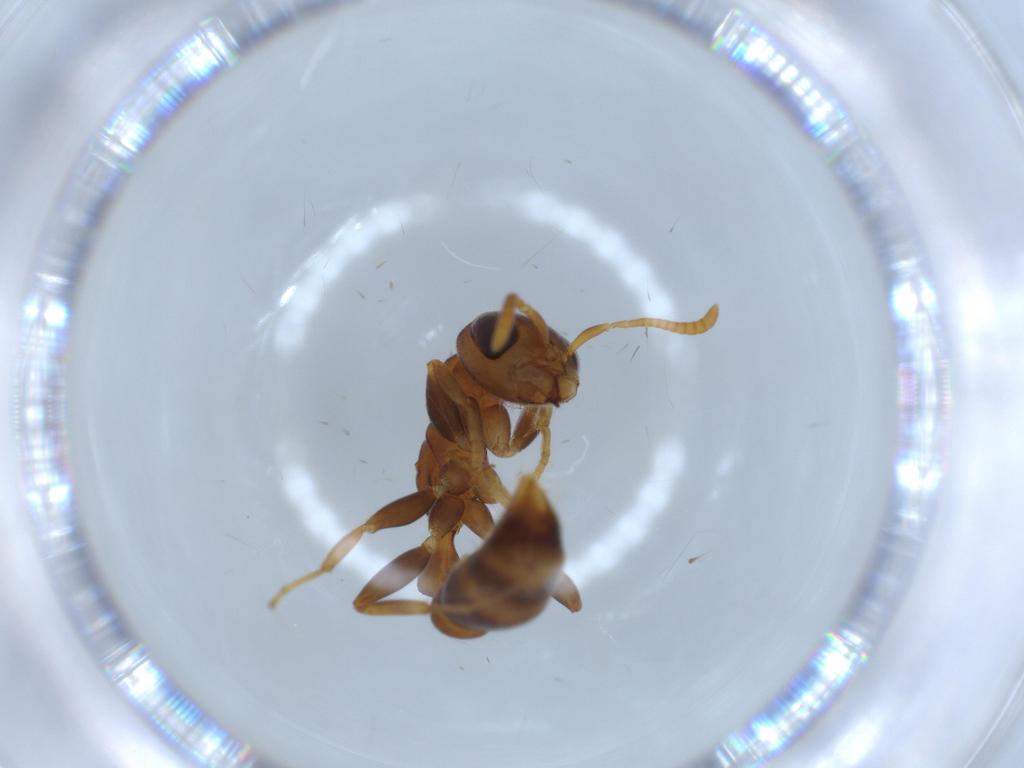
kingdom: Animalia
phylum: Arthropoda
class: Insecta
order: Hymenoptera
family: Formicidae
